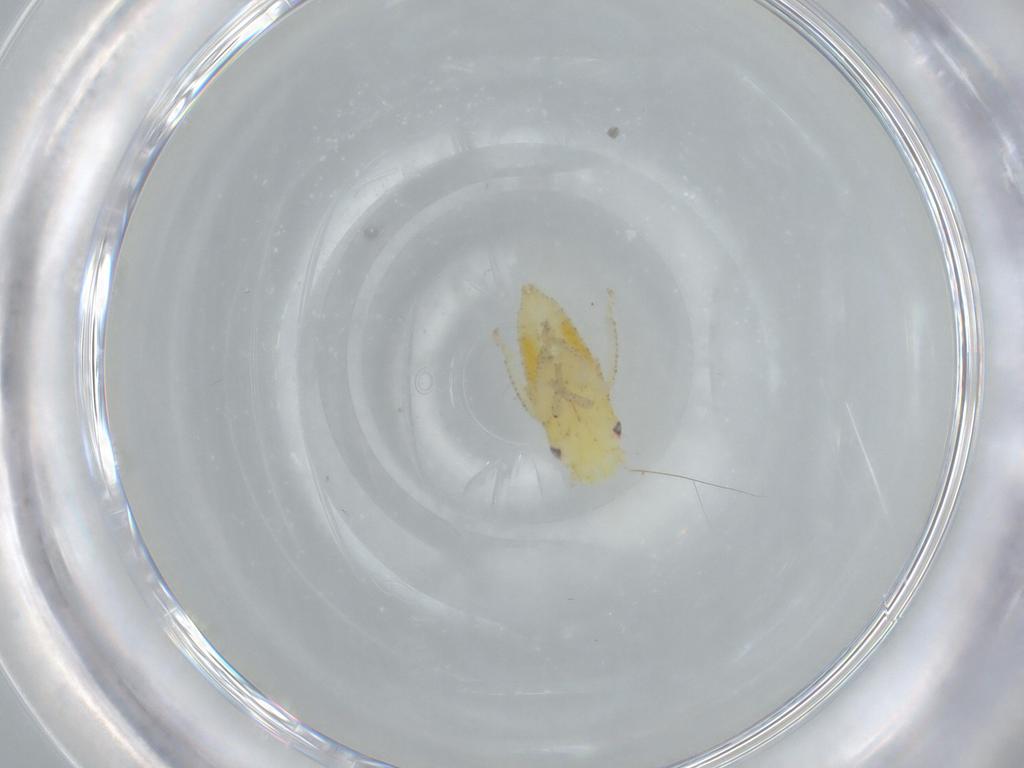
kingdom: Animalia
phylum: Arthropoda
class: Insecta
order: Hemiptera
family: Cicadellidae
